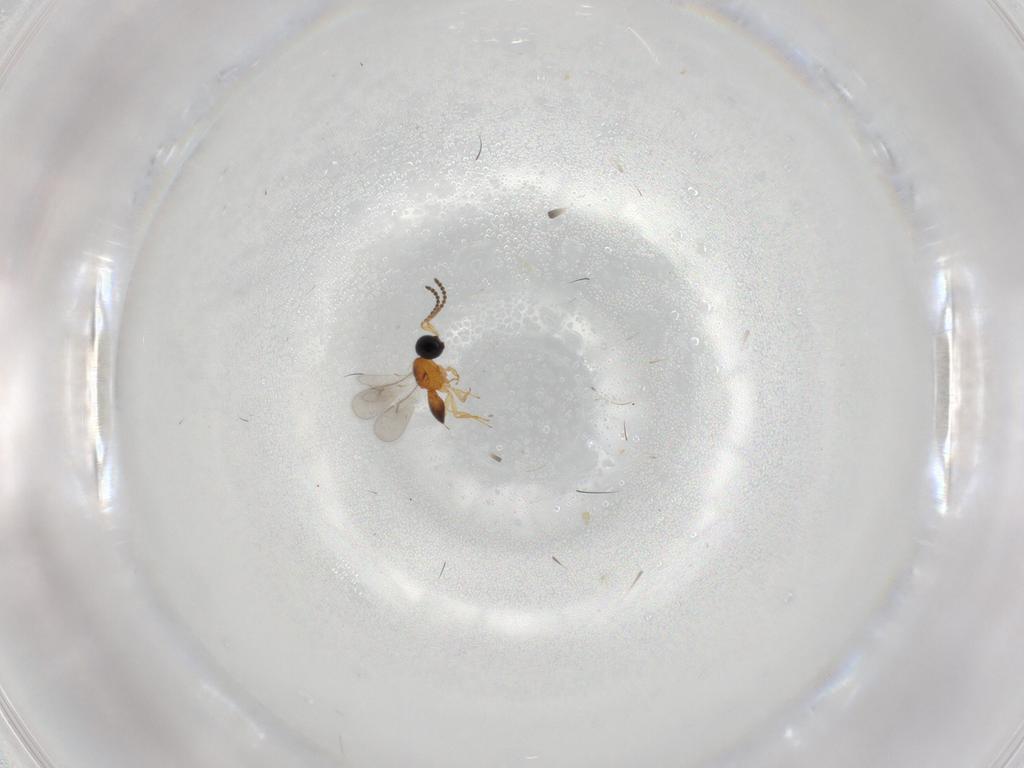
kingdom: Animalia
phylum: Arthropoda
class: Insecta
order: Hymenoptera
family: Scelionidae
